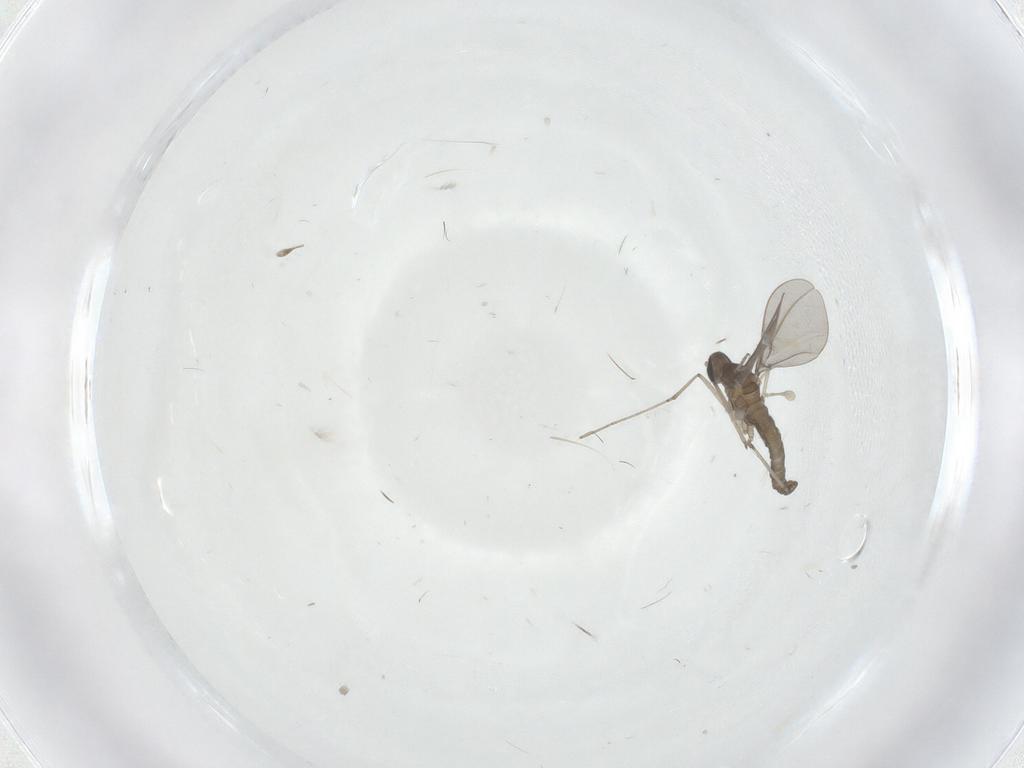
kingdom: Animalia
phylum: Arthropoda
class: Insecta
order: Diptera
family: Cecidomyiidae
